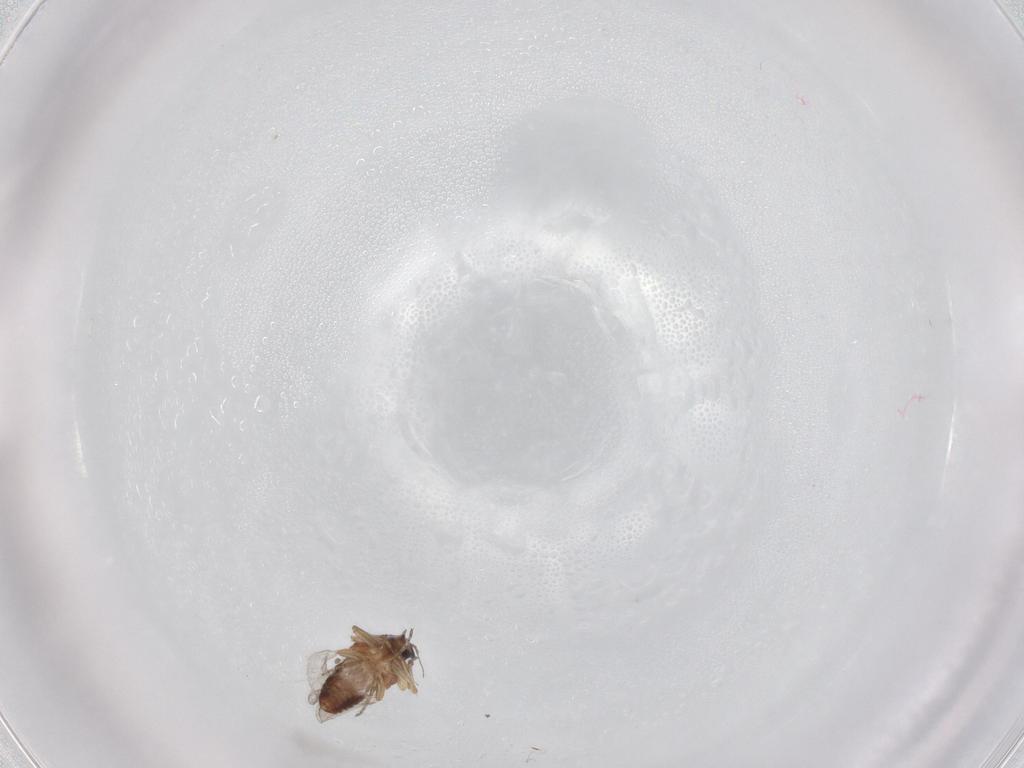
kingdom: Animalia
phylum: Arthropoda
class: Insecta
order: Diptera
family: Ceratopogonidae
